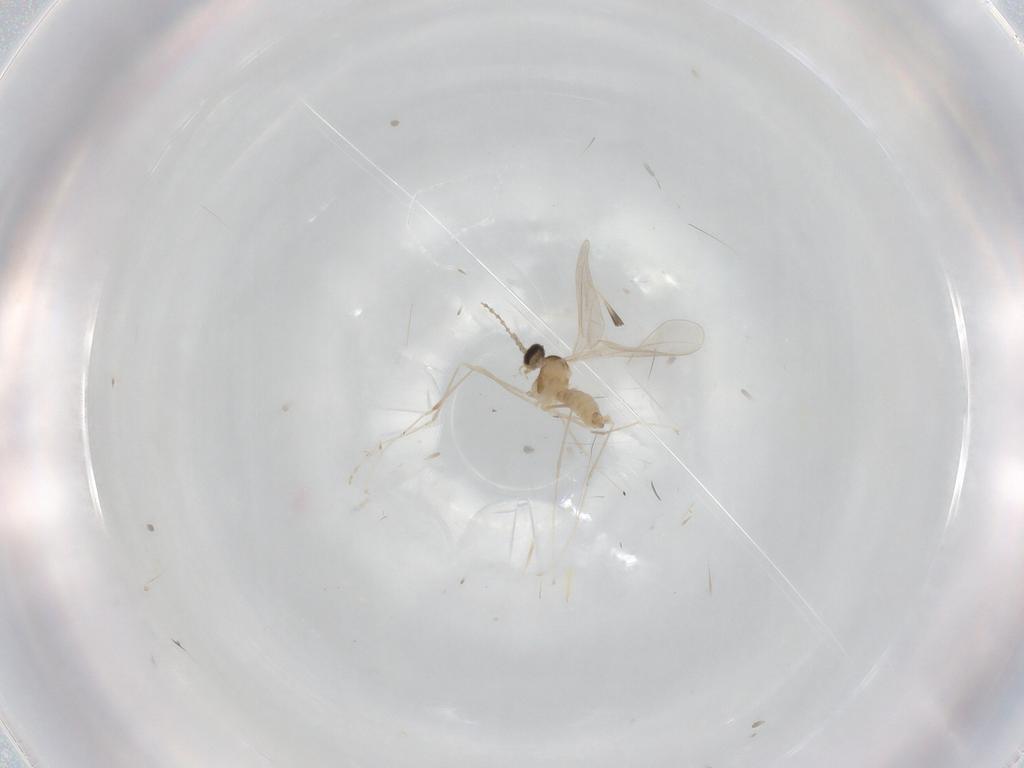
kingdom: Animalia
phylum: Arthropoda
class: Insecta
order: Diptera
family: Cecidomyiidae
